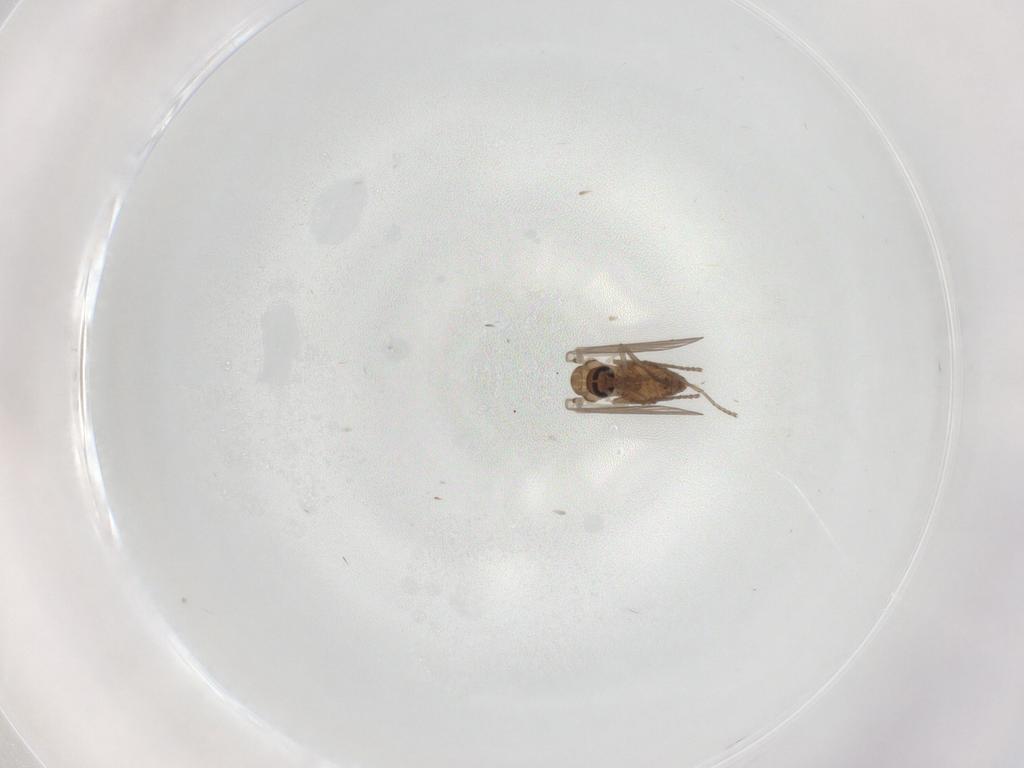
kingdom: Animalia
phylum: Arthropoda
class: Insecta
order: Diptera
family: Psychodidae
